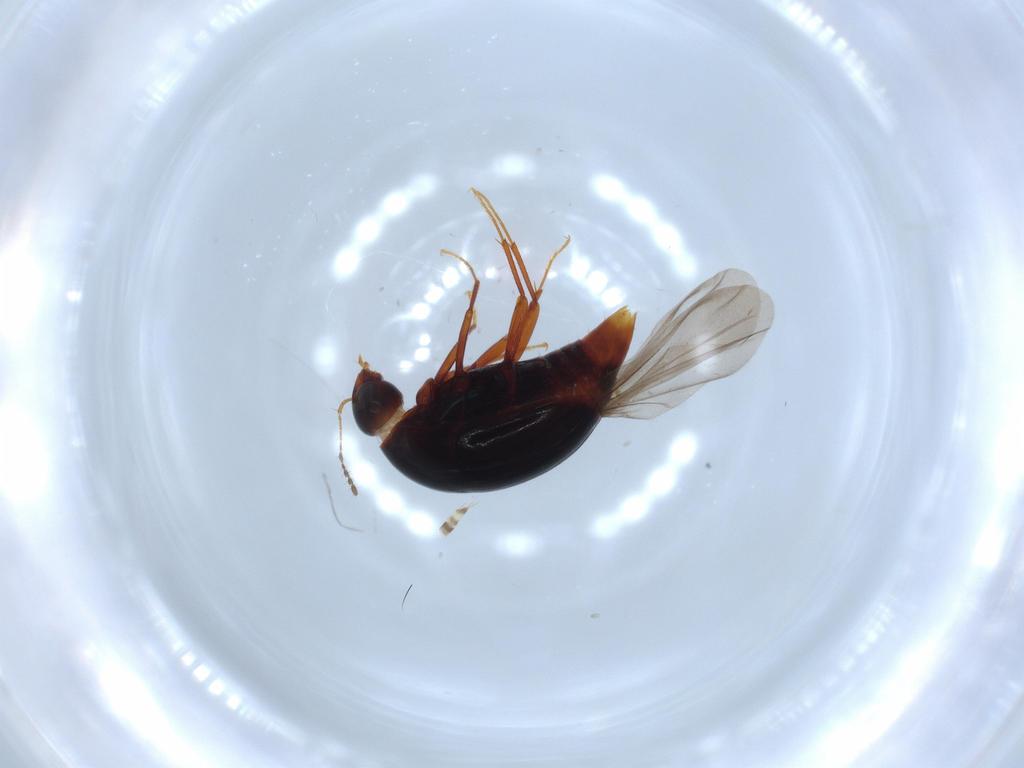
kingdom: Animalia
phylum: Arthropoda
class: Insecta
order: Coleoptera
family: Staphylinidae
